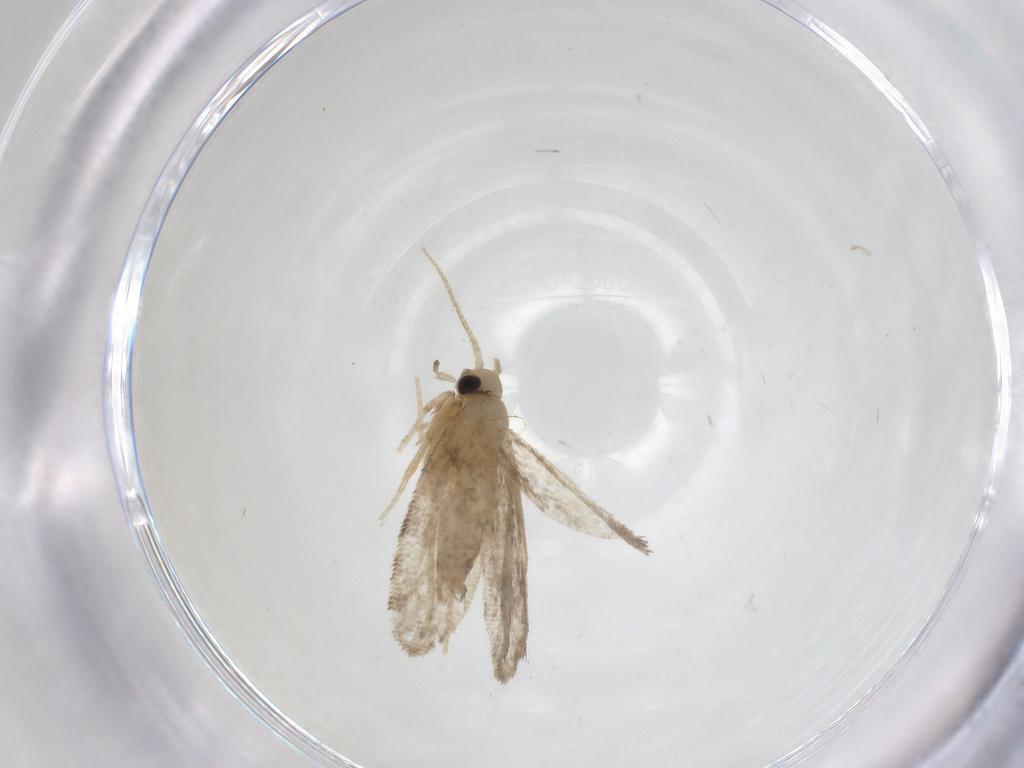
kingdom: Animalia
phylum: Arthropoda
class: Insecta
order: Lepidoptera
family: Psychidae
